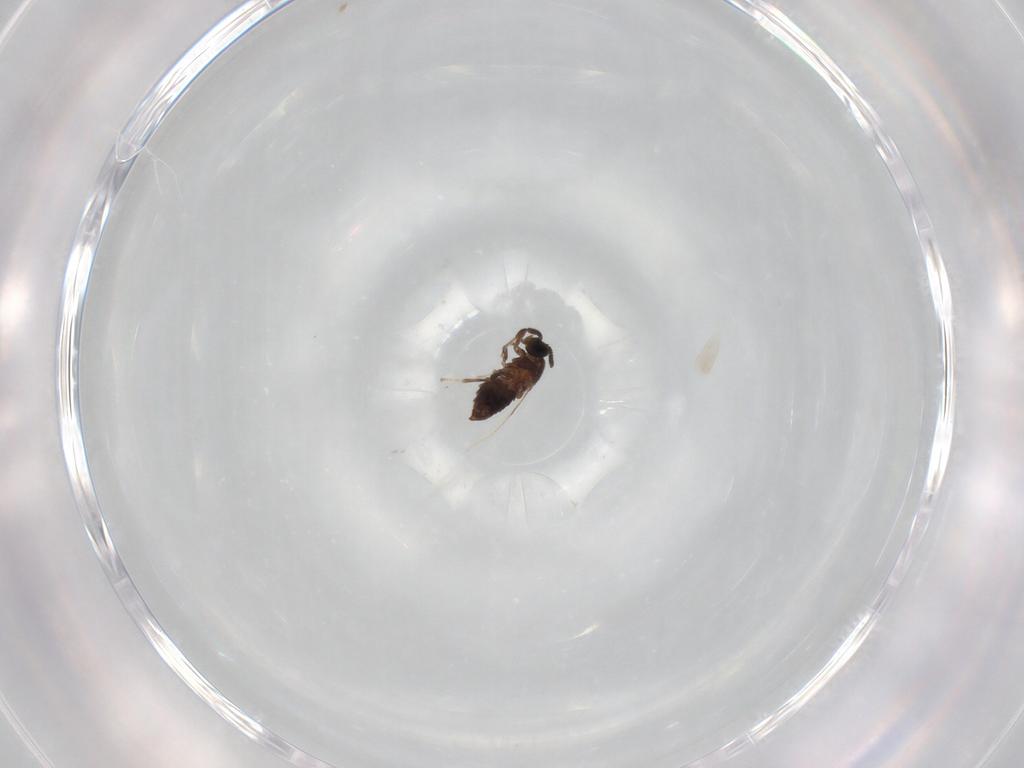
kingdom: Animalia
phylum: Arthropoda
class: Insecta
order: Diptera
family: Scatopsidae
